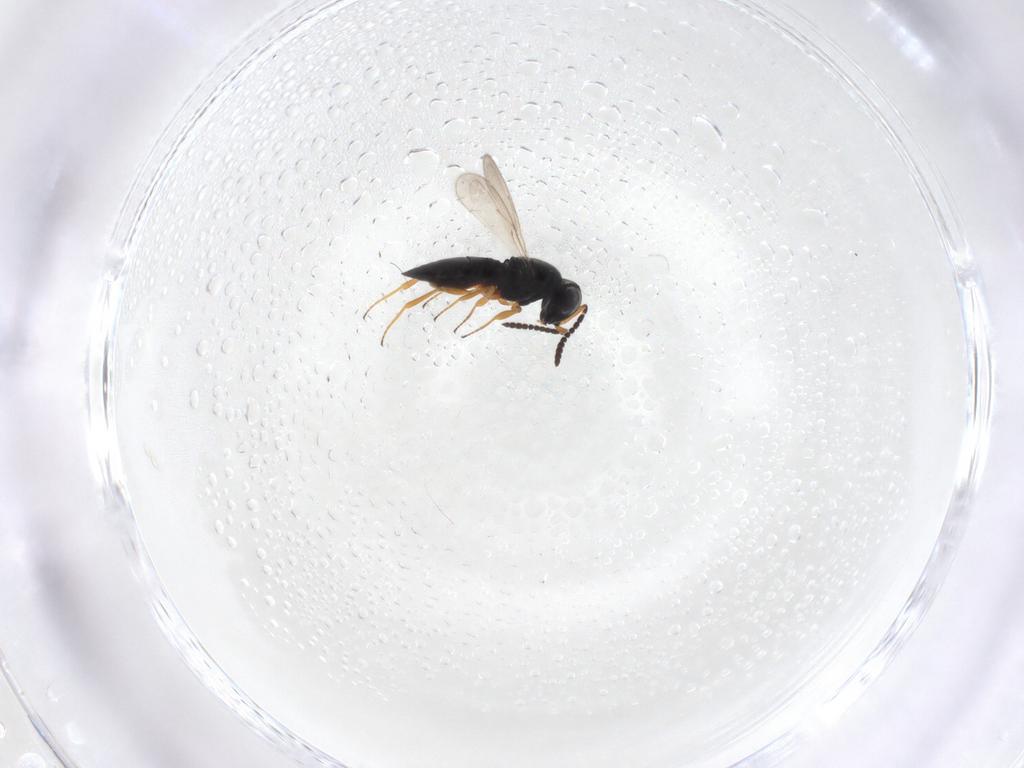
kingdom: Animalia
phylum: Arthropoda
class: Insecta
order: Hymenoptera
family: Scelionidae
